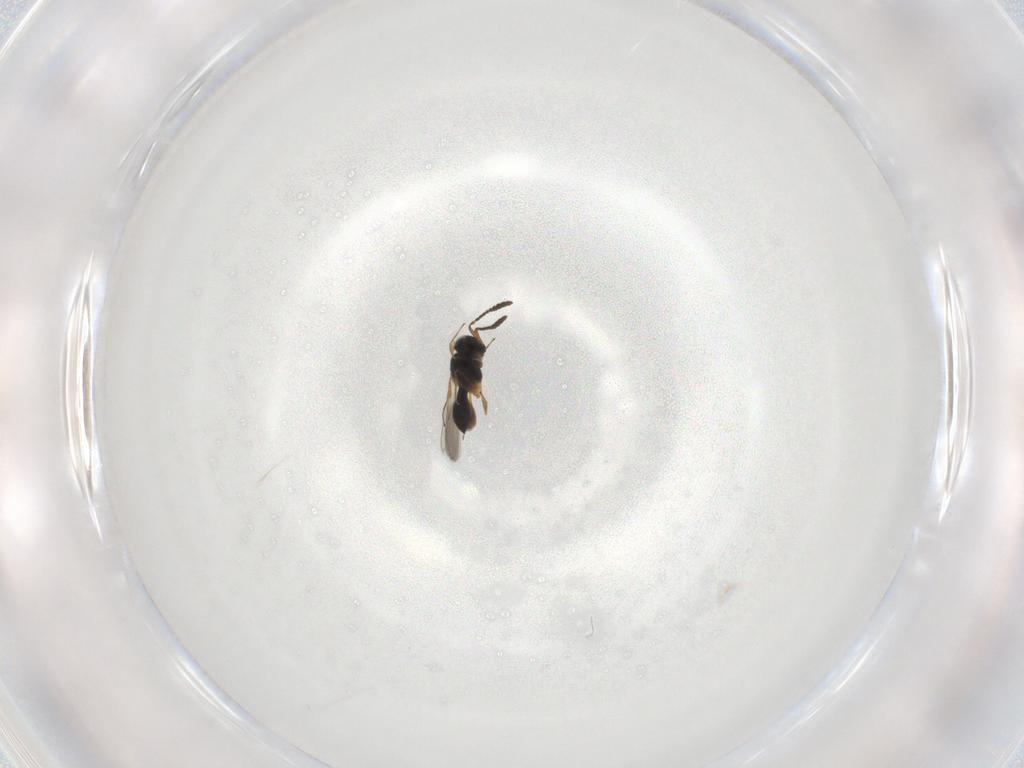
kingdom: Animalia
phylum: Arthropoda
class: Insecta
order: Hymenoptera
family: Scelionidae
